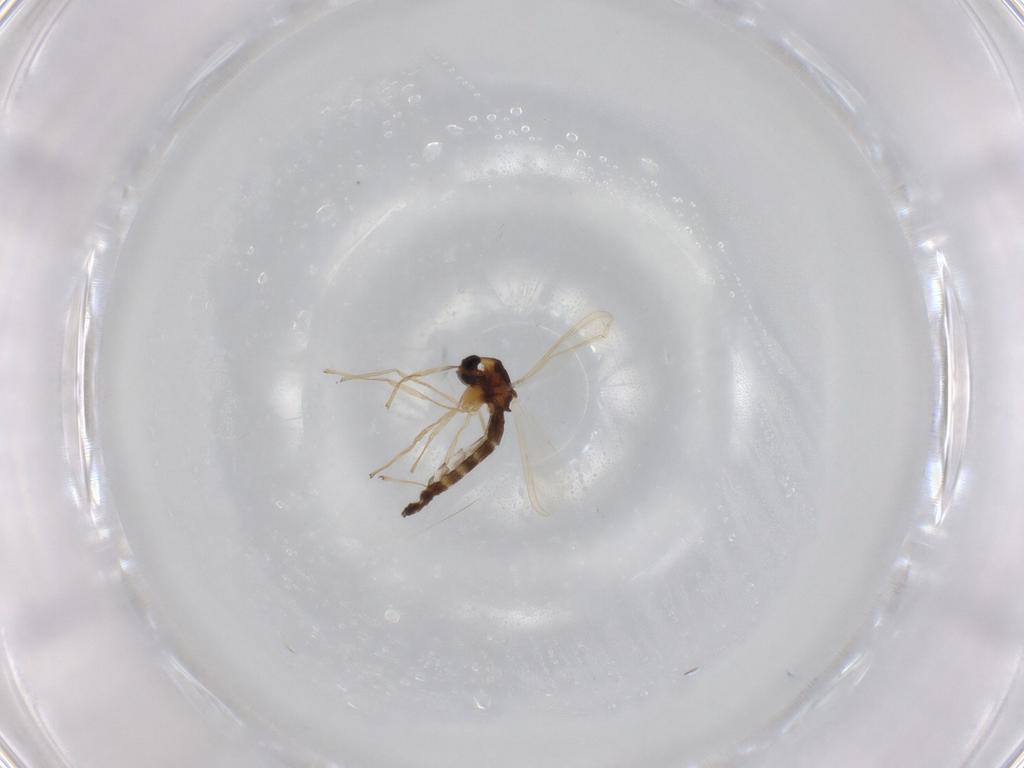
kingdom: Animalia
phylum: Arthropoda
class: Insecta
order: Diptera
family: Chironomidae
